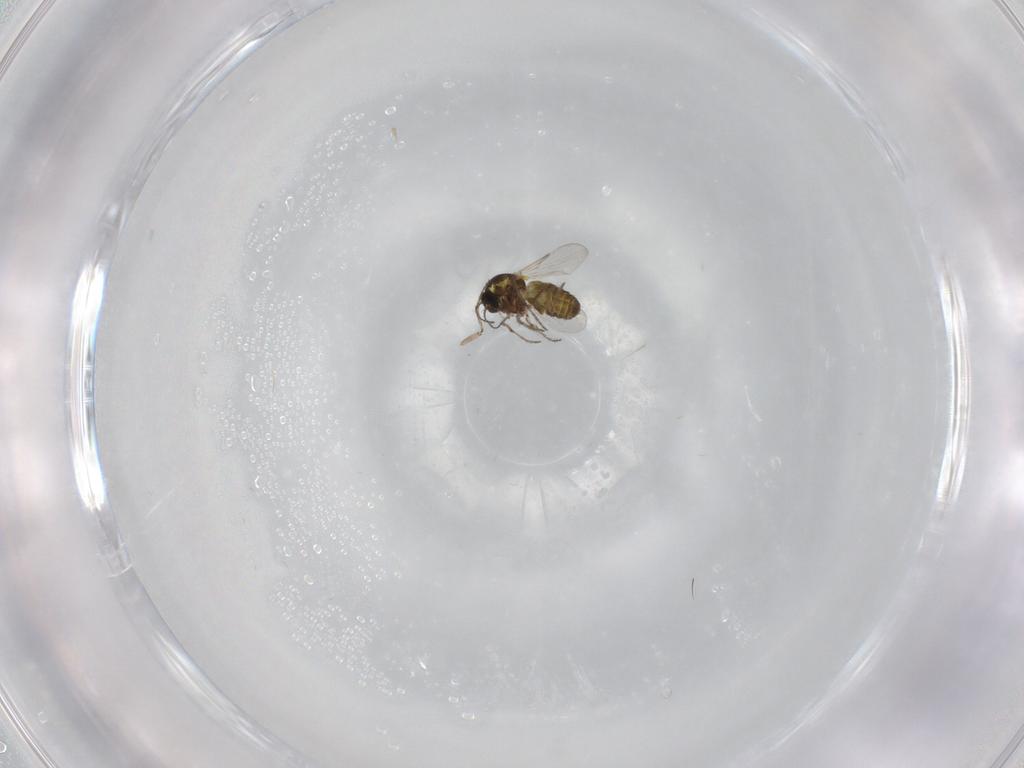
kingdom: Animalia
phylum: Arthropoda
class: Insecta
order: Diptera
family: Ceratopogonidae
